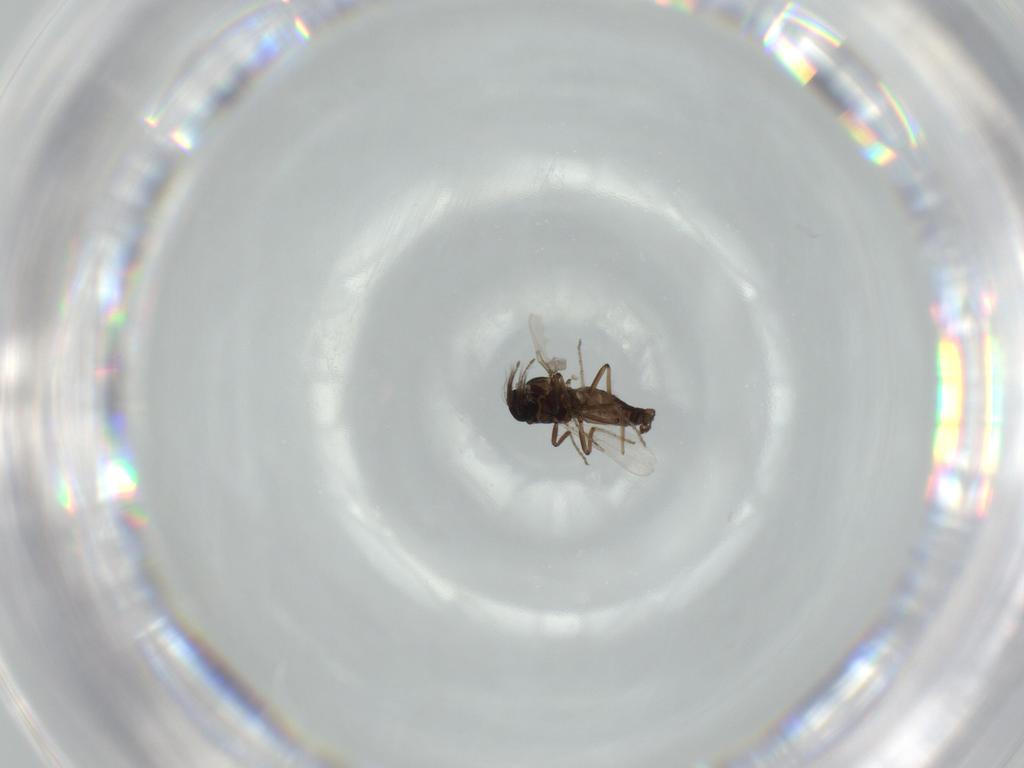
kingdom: Animalia
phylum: Arthropoda
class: Insecta
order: Diptera
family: Ceratopogonidae
